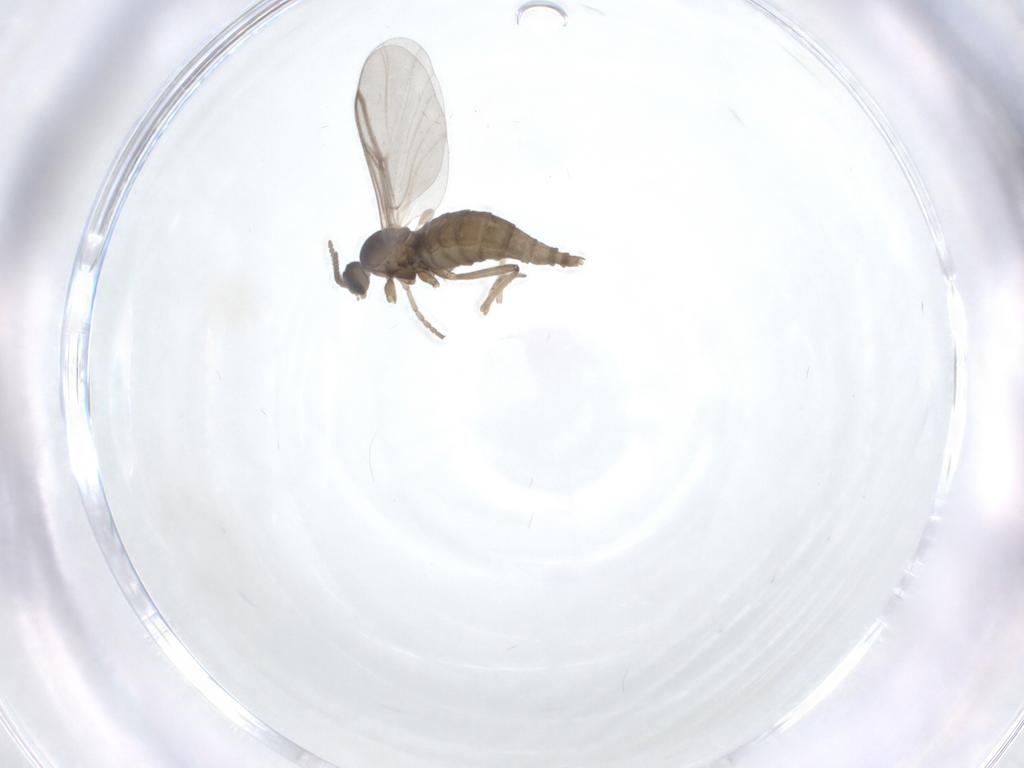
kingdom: Animalia
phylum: Arthropoda
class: Insecta
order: Diptera
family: Cecidomyiidae
